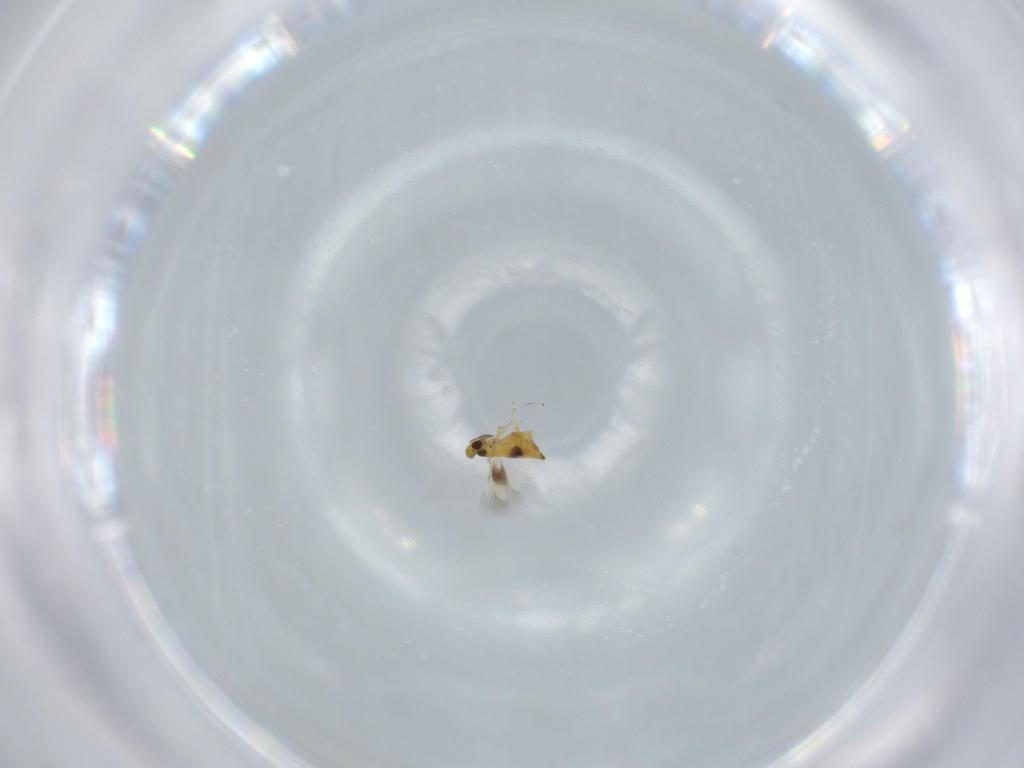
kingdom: Animalia
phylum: Arthropoda
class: Insecta
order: Hymenoptera
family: Signiphoridae
